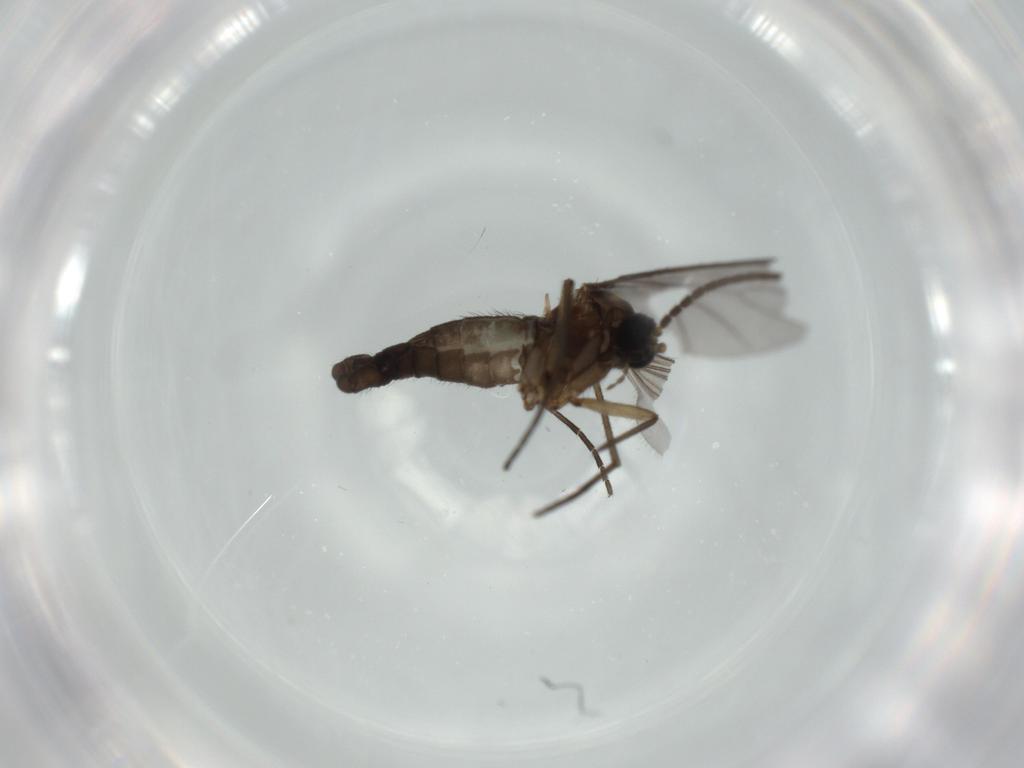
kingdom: Animalia
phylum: Arthropoda
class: Insecta
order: Diptera
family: Sciaridae
